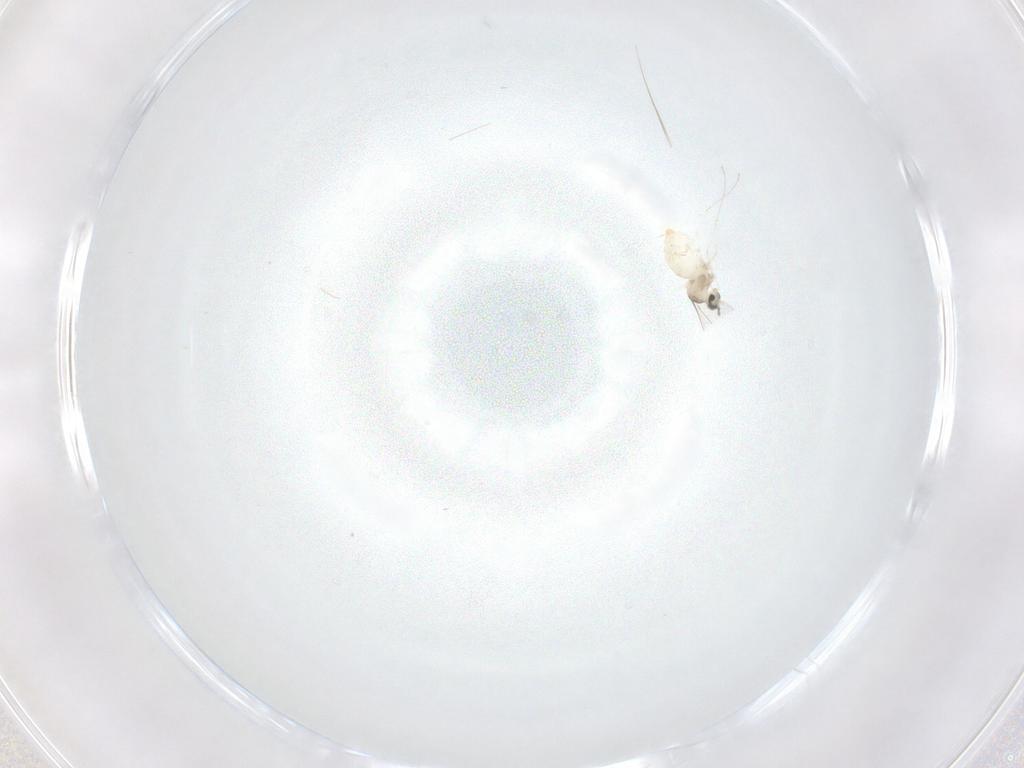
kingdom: Animalia
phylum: Arthropoda
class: Insecta
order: Diptera
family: Cecidomyiidae
